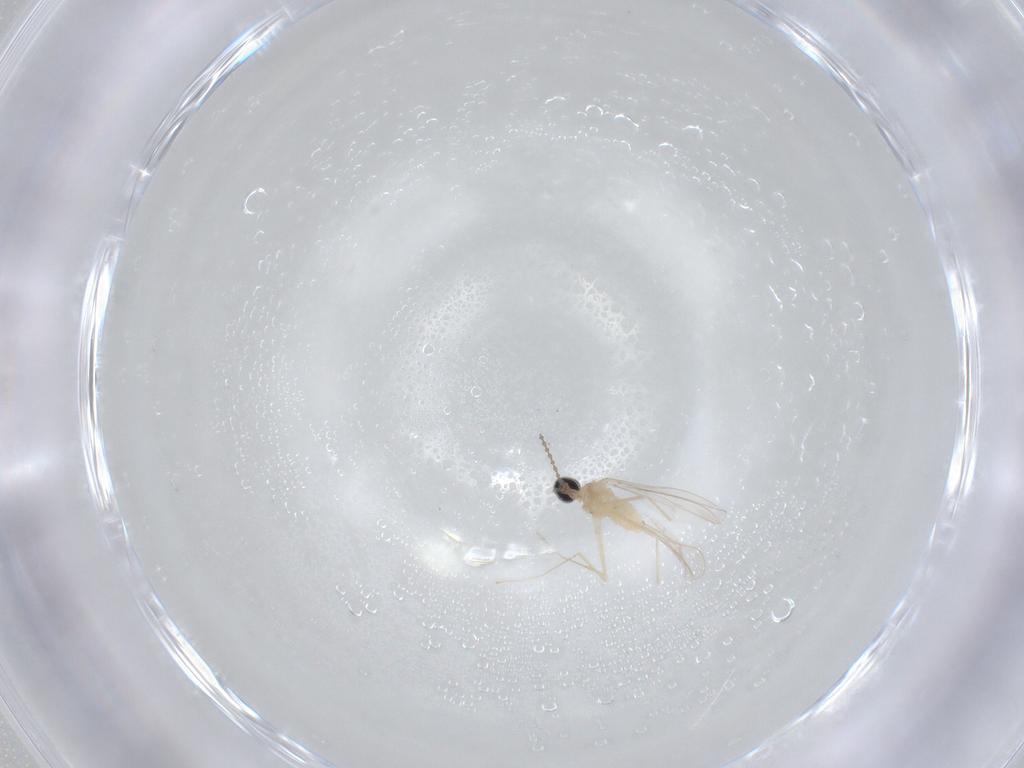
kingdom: Animalia
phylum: Arthropoda
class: Insecta
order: Diptera
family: Cecidomyiidae
